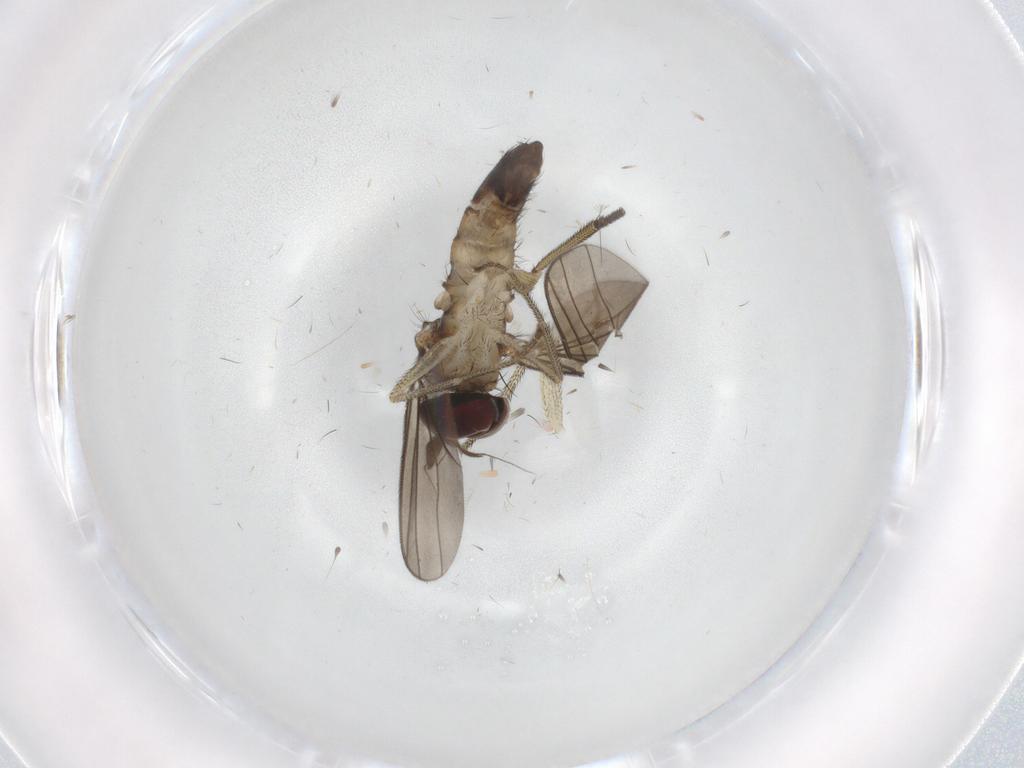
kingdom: Animalia
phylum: Arthropoda
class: Insecta
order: Diptera
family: Dolichopodidae
